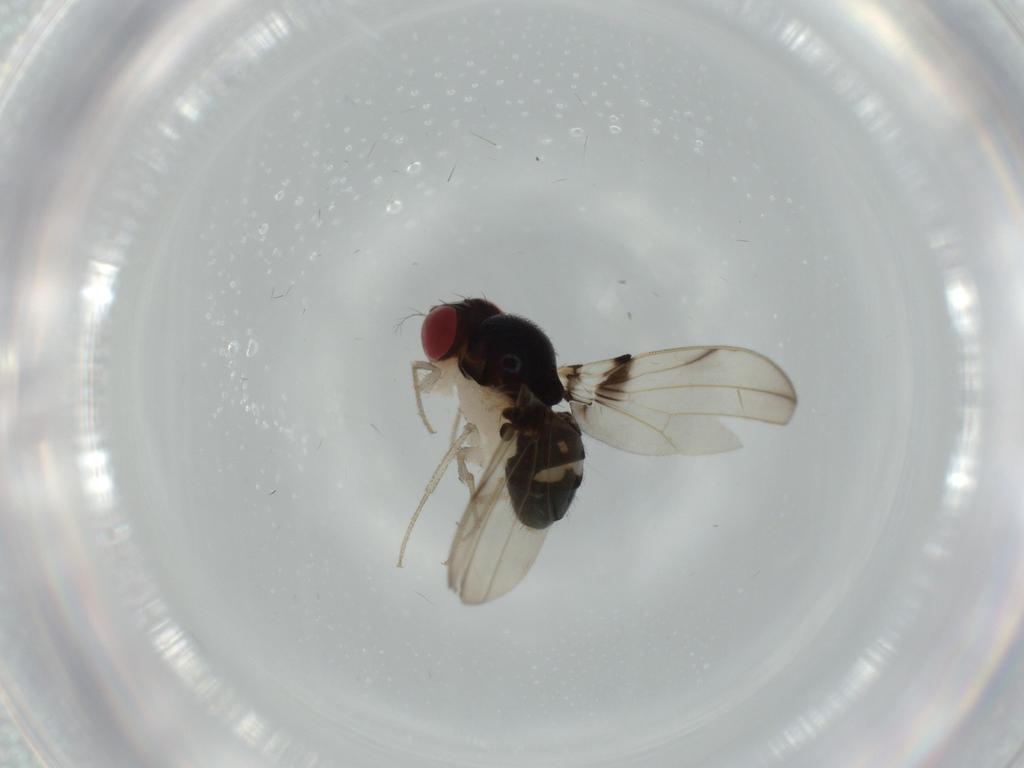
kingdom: Animalia
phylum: Arthropoda
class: Insecta
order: Diptera
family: Drosophilidae
